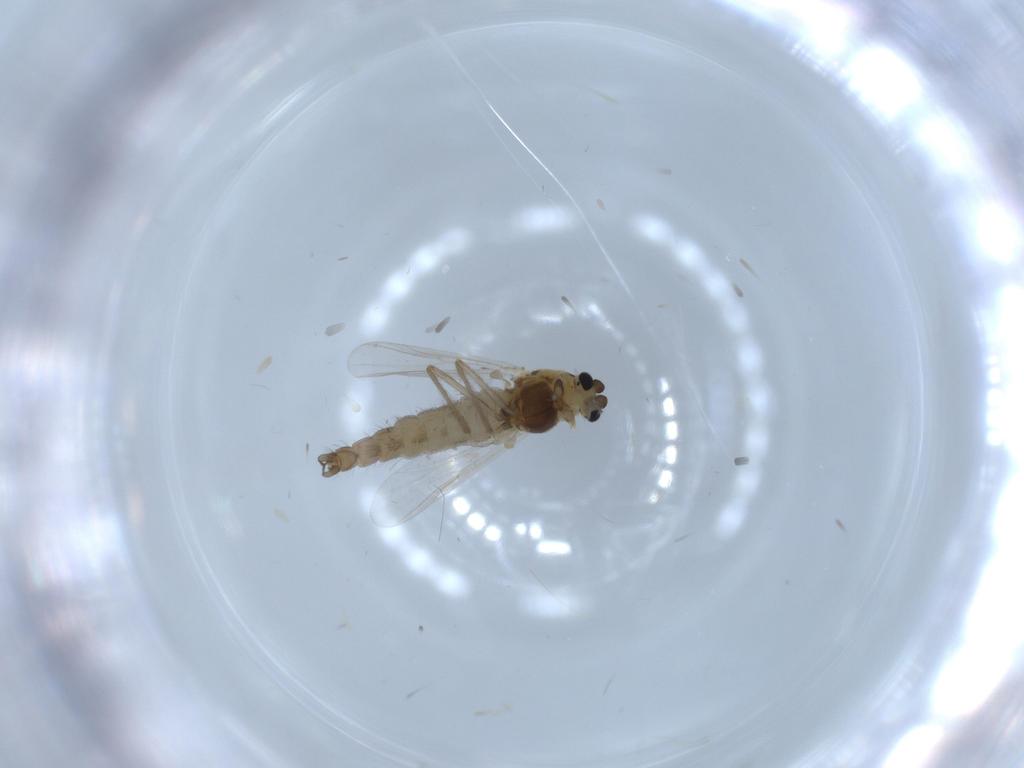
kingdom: Animalia
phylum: Arthropoda
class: Insecta
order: Diptera
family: Chironomidae
